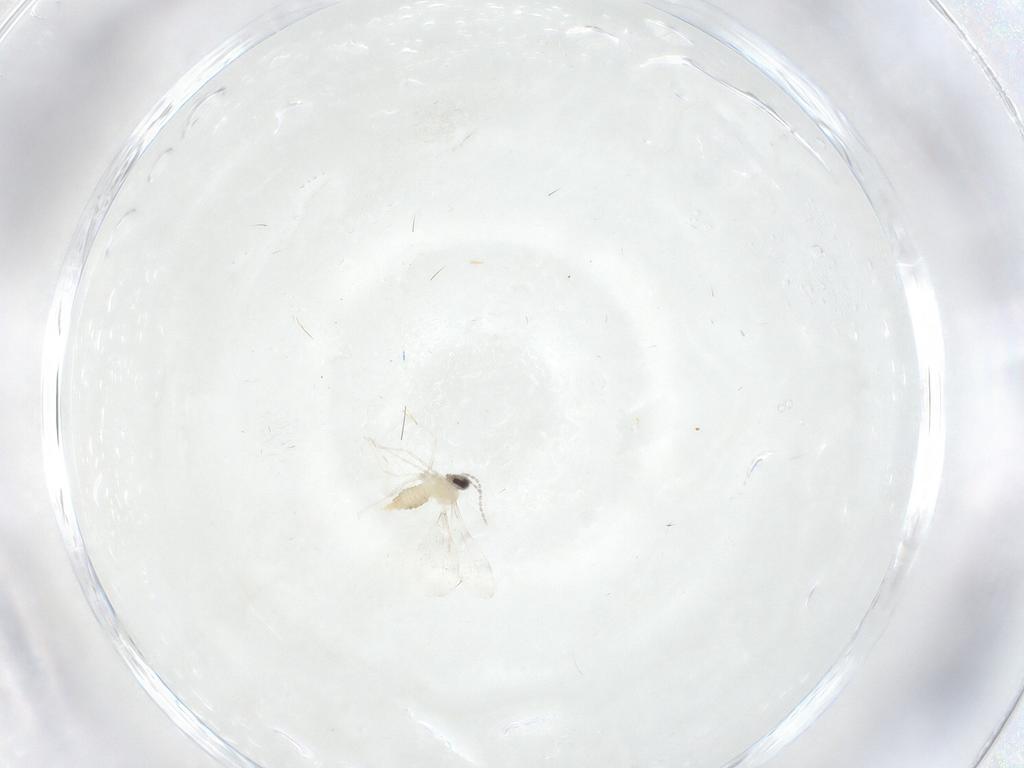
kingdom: Animalia
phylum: Arthropoda
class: Insecta
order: Diptera
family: Cecidomyiidae
